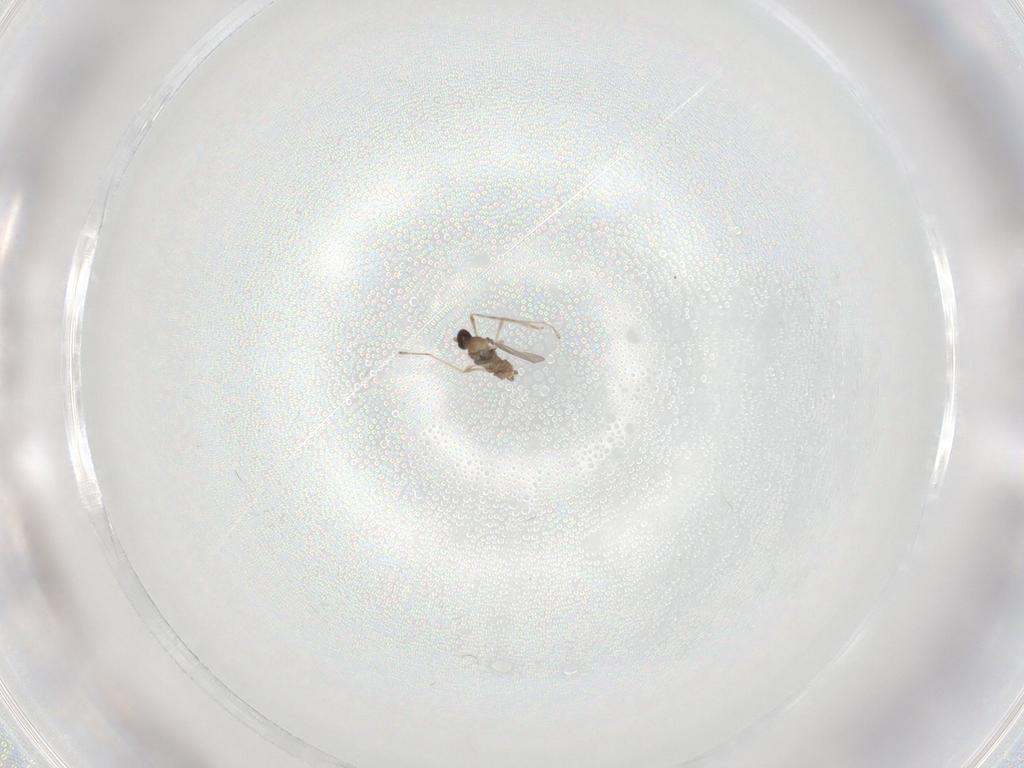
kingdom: Animalia
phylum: Arthropoda
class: Insecta
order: Diptera
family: Cecidomyiidae
